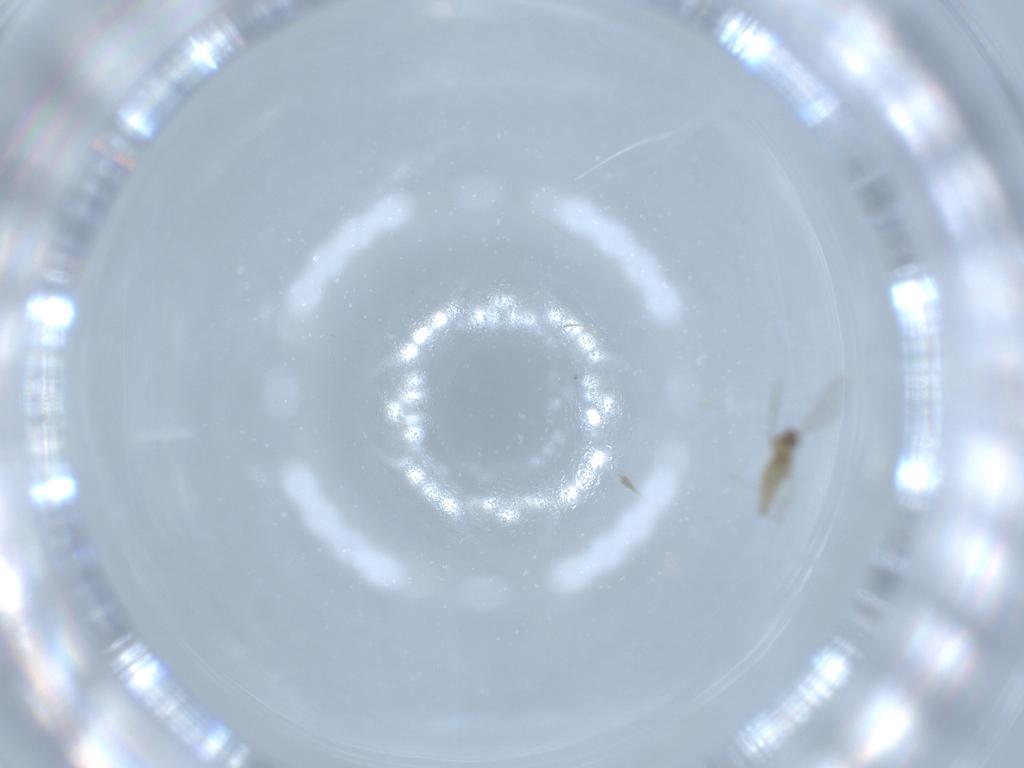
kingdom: Animalia
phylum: Arthropoda
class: Insecta
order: Diptera
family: Cecidomyiidae
